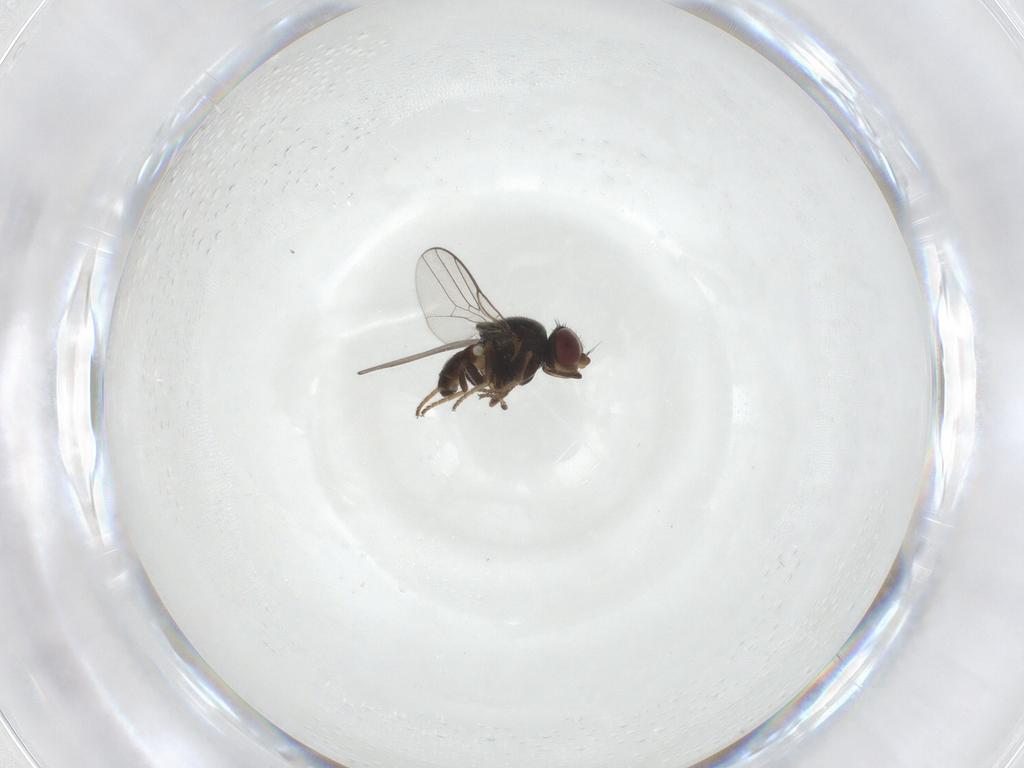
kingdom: Animalia
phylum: Arthropoda
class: Insecta
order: Diptera
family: Chloropidae
